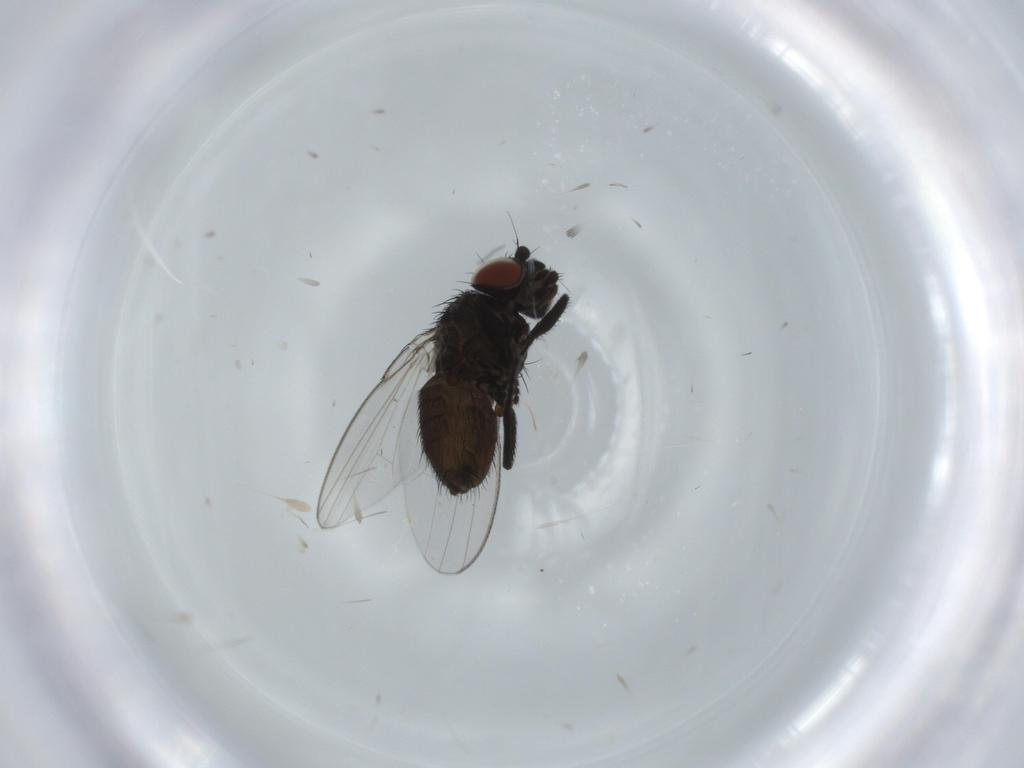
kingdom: Animalia
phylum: Arthropoda
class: Insecta
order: Diptera
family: Milichiidae
